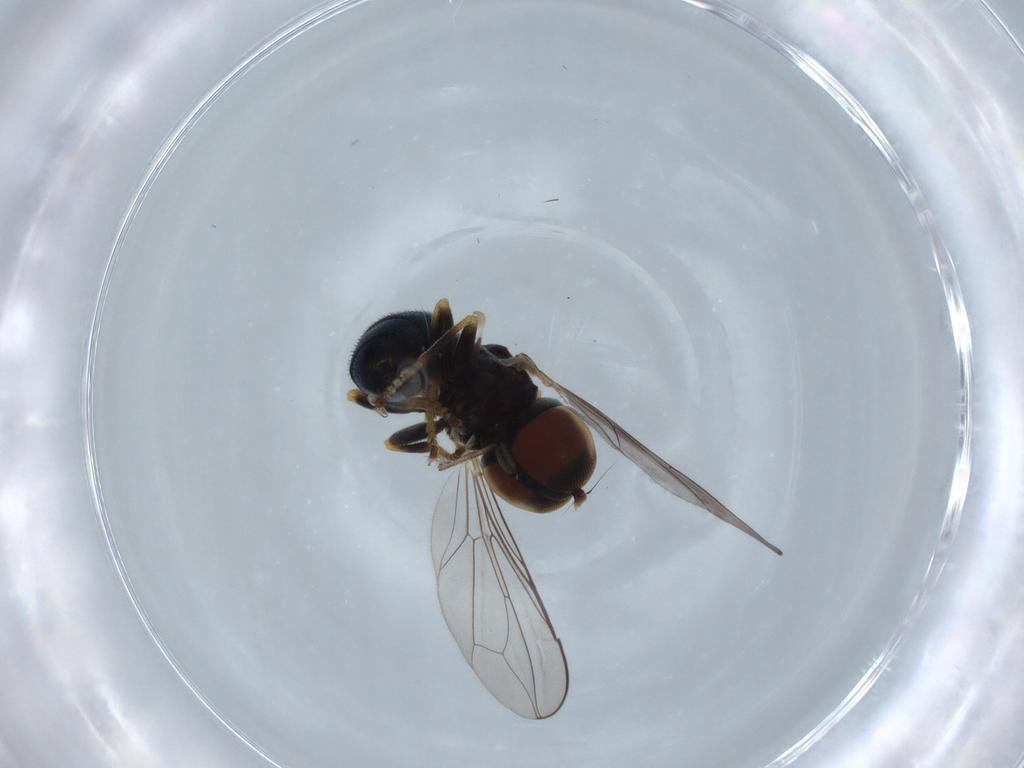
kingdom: Animalia
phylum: Arthropoda
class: Insecta
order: Diptera
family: Pipunculidae
